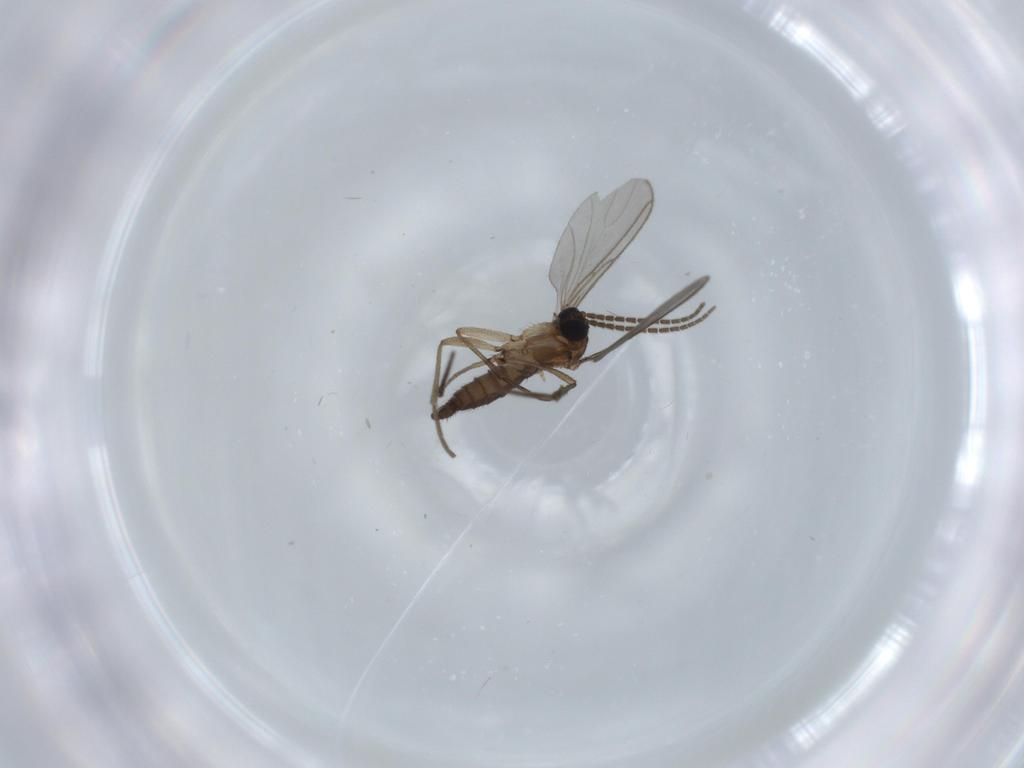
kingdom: Animalia
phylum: Arthropoda
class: Insecta
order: Diptera
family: Sciaridae
